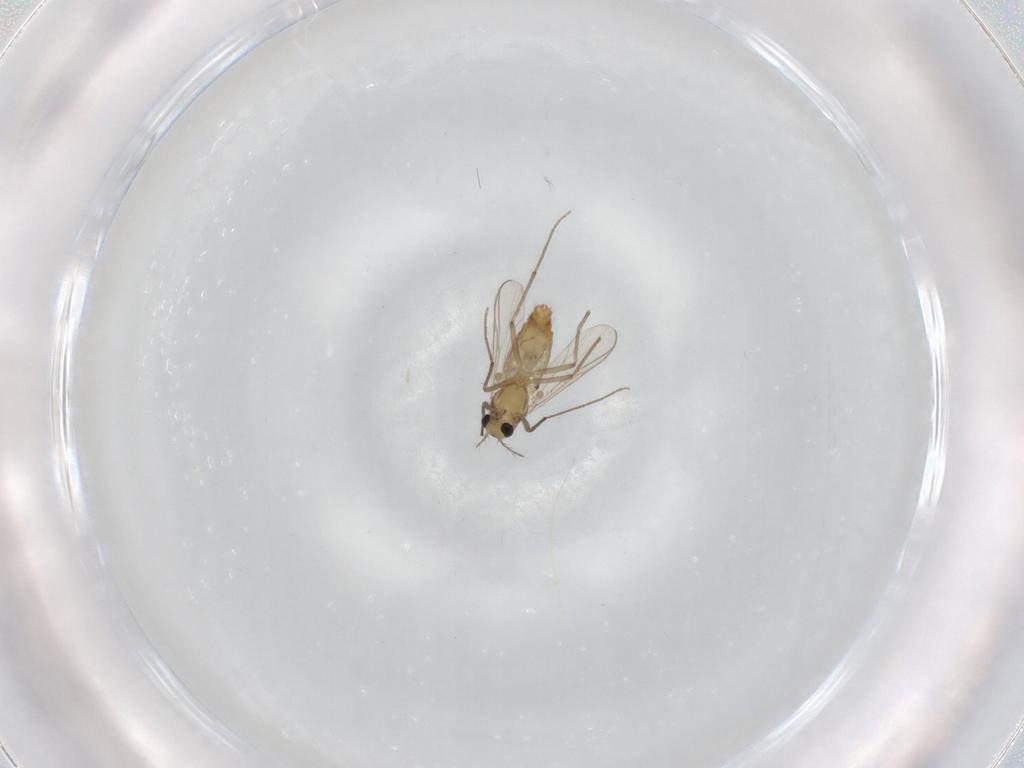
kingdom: Animalia
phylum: Arthropoda
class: Insecta
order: Diptera
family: Chironomidae
